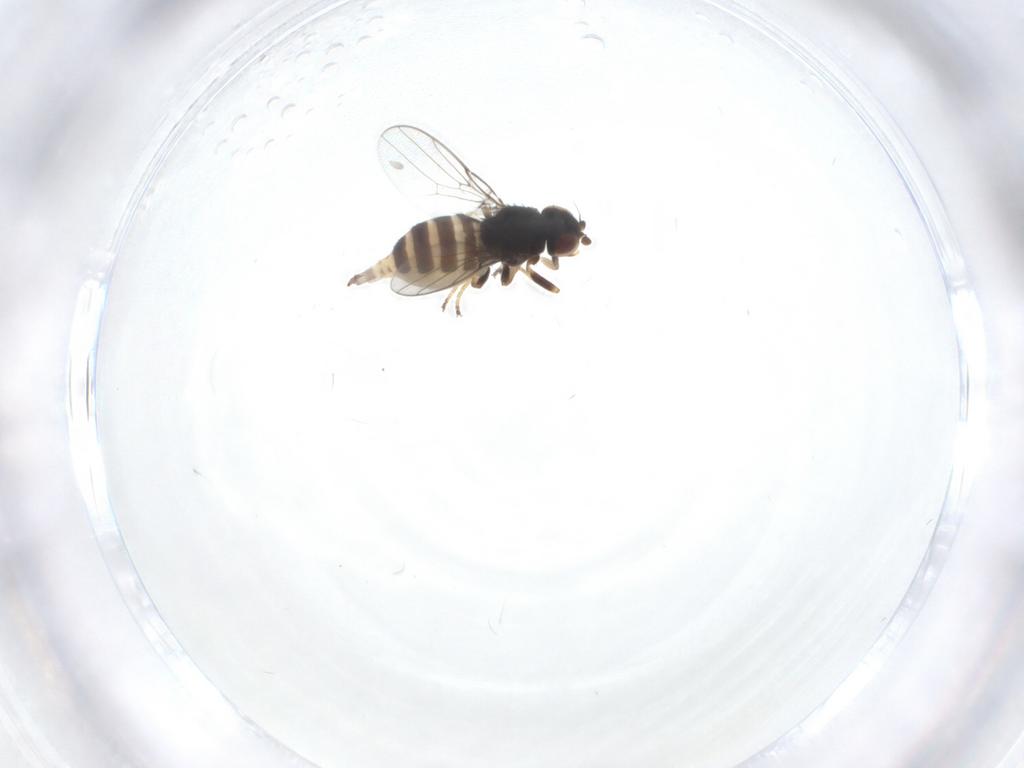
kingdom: Animalia
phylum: Arthropoda
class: Insecta
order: Diptera
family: Chloropidae
